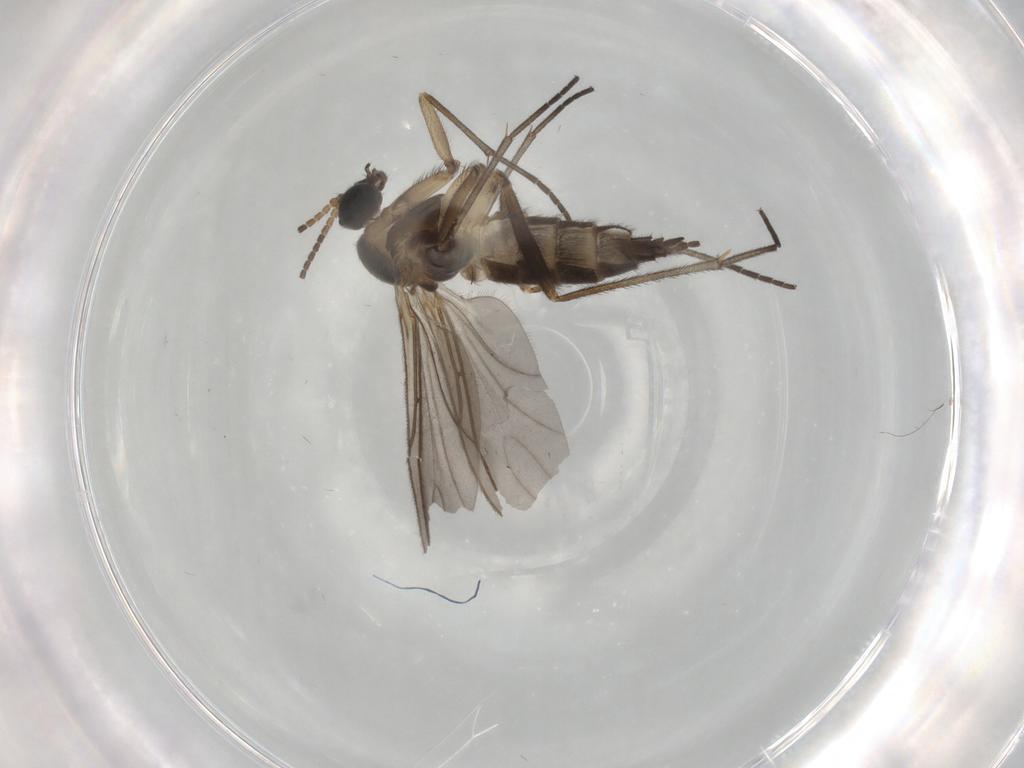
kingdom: Animalia
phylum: Arthropoda
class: Insecta
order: Diptera
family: Sciaridae
